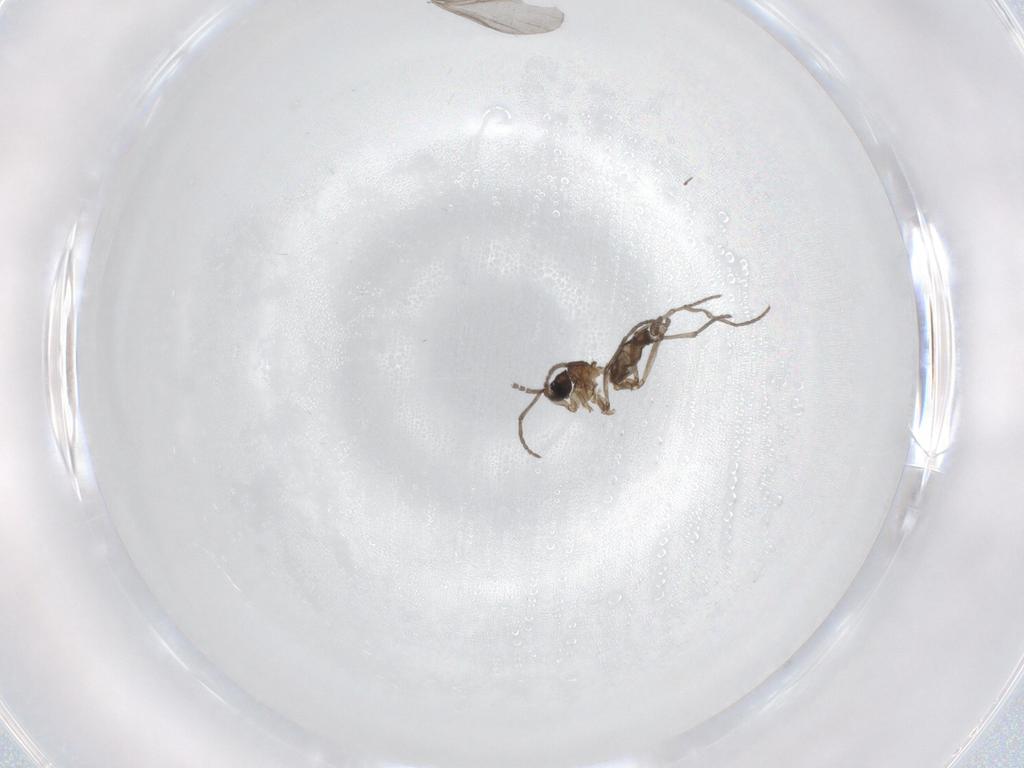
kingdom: Animalia
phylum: Arthropoda
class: Insecta
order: Diptera
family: Sciaridae
